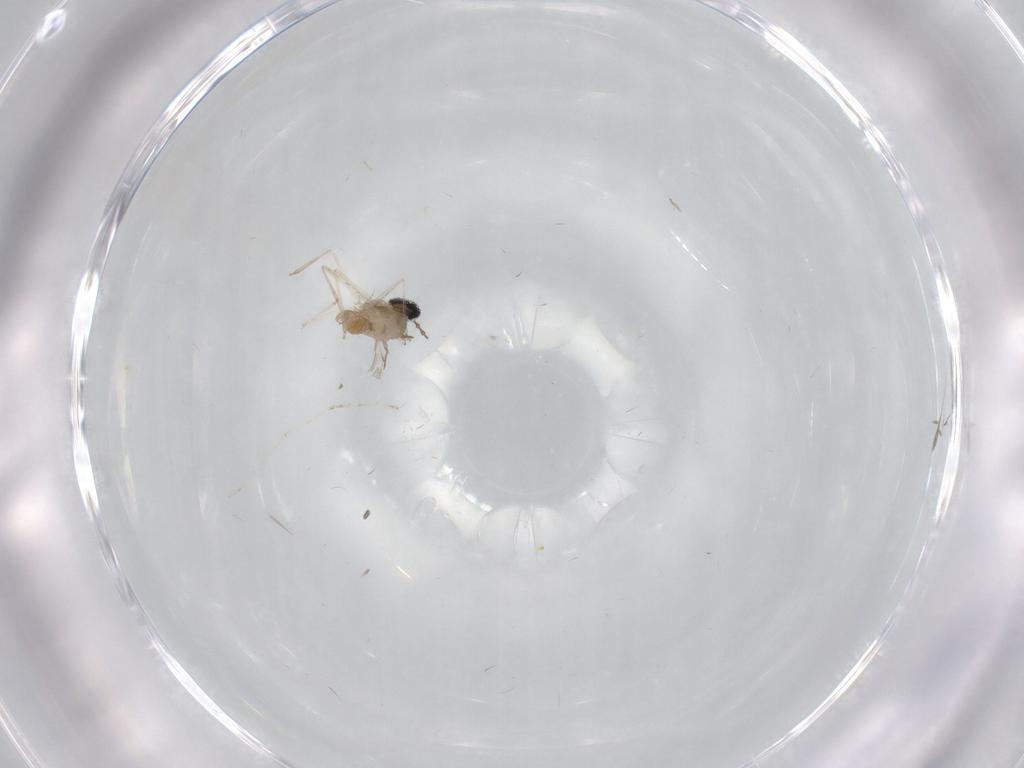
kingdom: Animalia
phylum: Arthropoda
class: Insecta
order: Diptera
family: Cecidomyiidae
